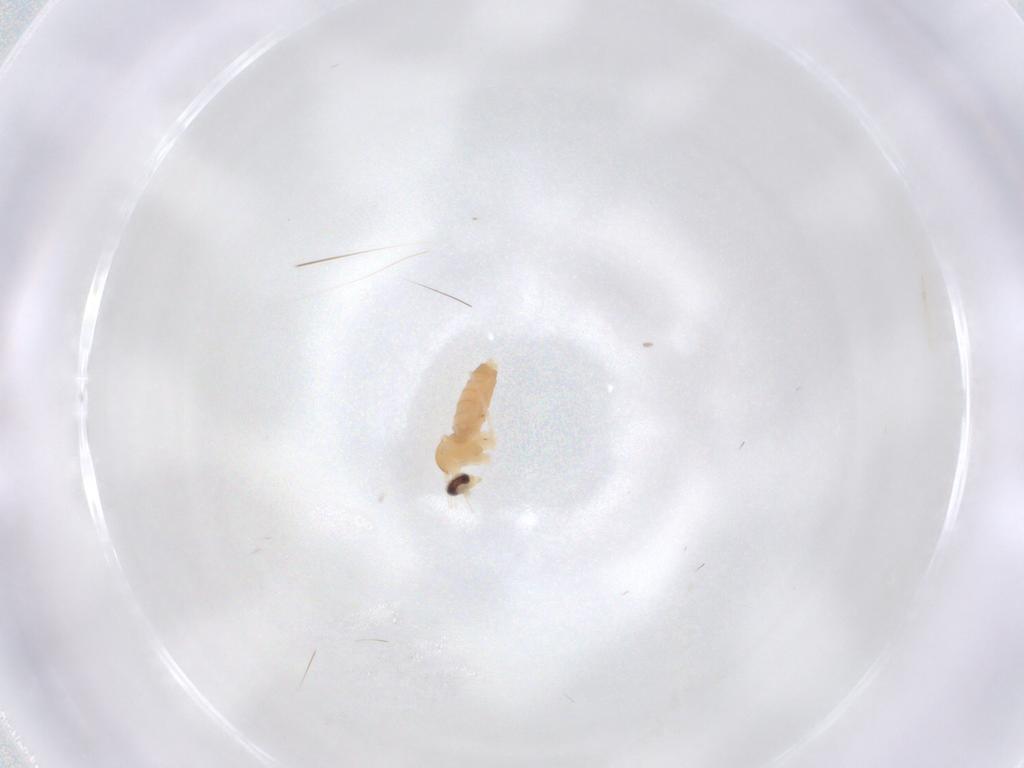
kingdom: Animalia
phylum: Arthropoda
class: Insecta
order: Diptera
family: Cecidomyiidae
